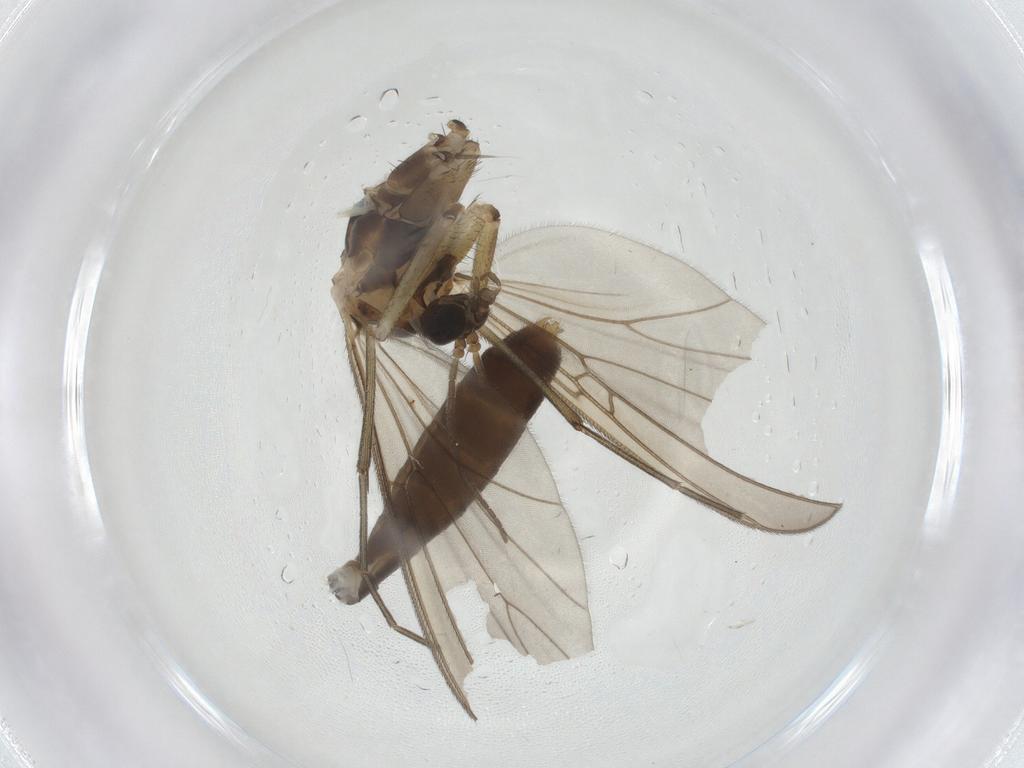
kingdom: Animalia
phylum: Arthropoda
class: Insecta
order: Diptera
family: Mycetophilidae
